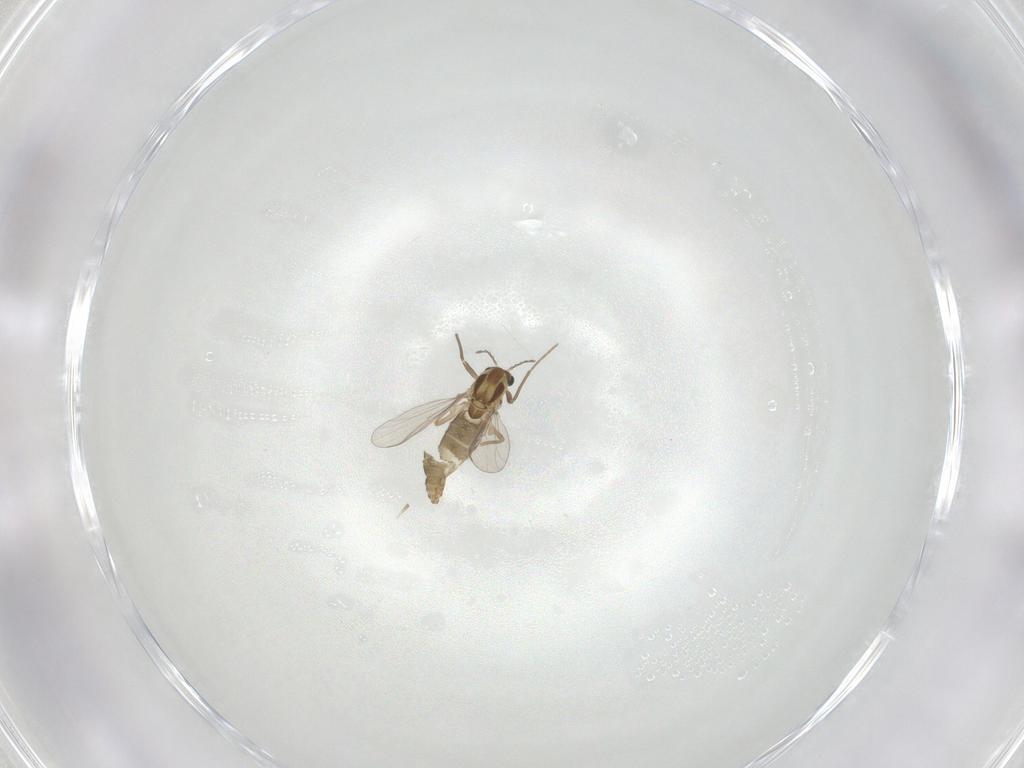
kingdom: Animalia
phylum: Arthropoda
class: Insecta
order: Diptera
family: Chironomidae
